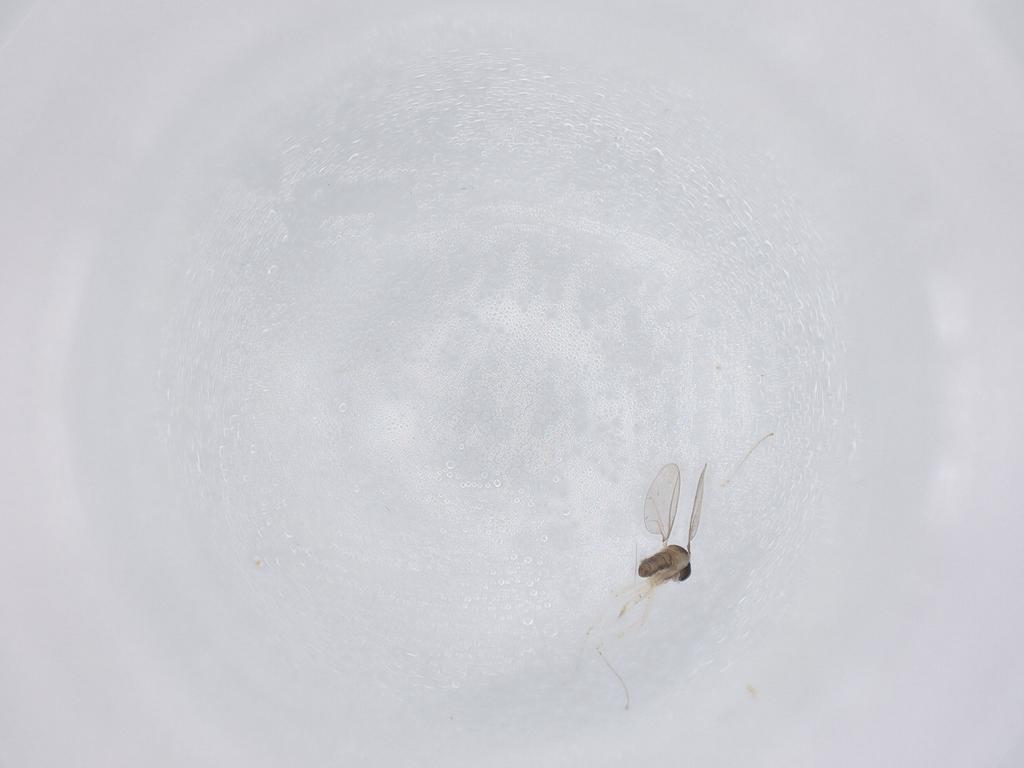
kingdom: Animalia
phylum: Arthropoda
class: Insecta
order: Diptera
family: Cecidomyiidae
